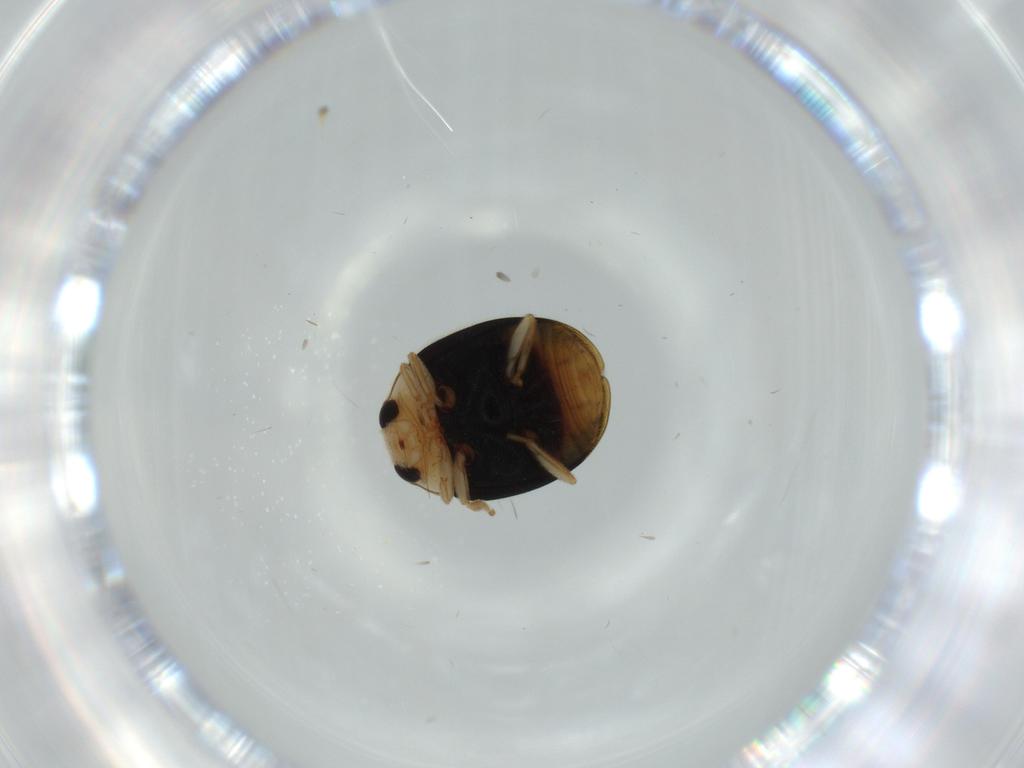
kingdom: Animalia
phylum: Arthropoda
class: Insecta
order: Coleoptera
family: Coccinellidae
